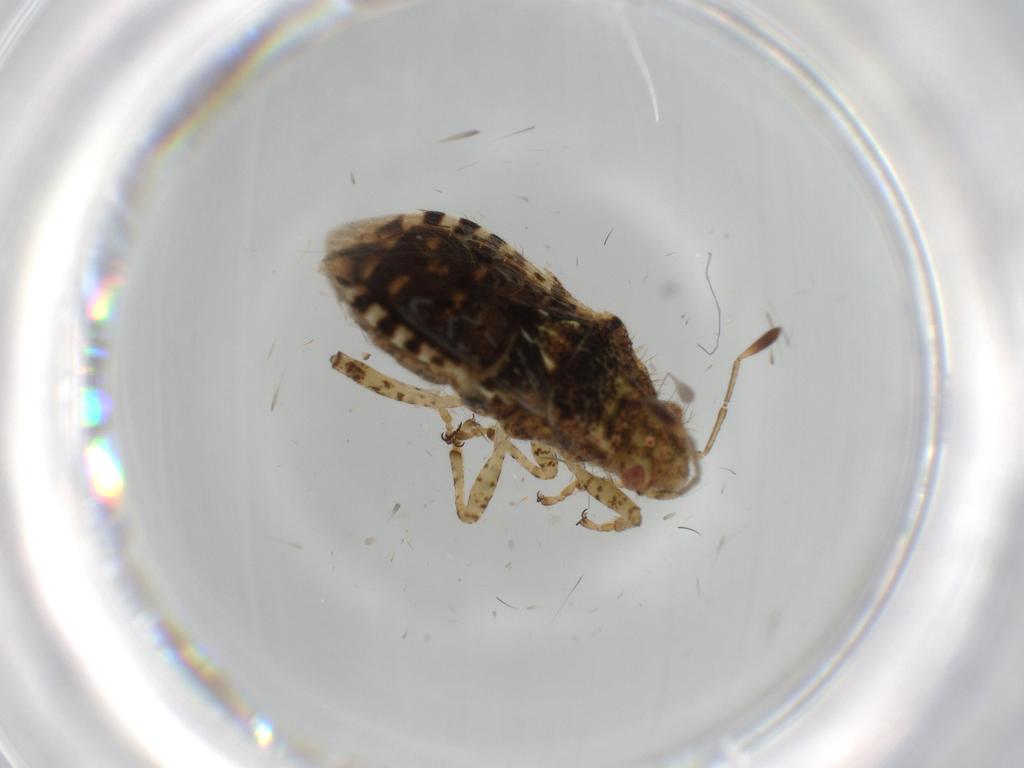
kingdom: Animalia
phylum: Arthropoda
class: Insecta
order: Hemiptera
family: Rhopalidae
